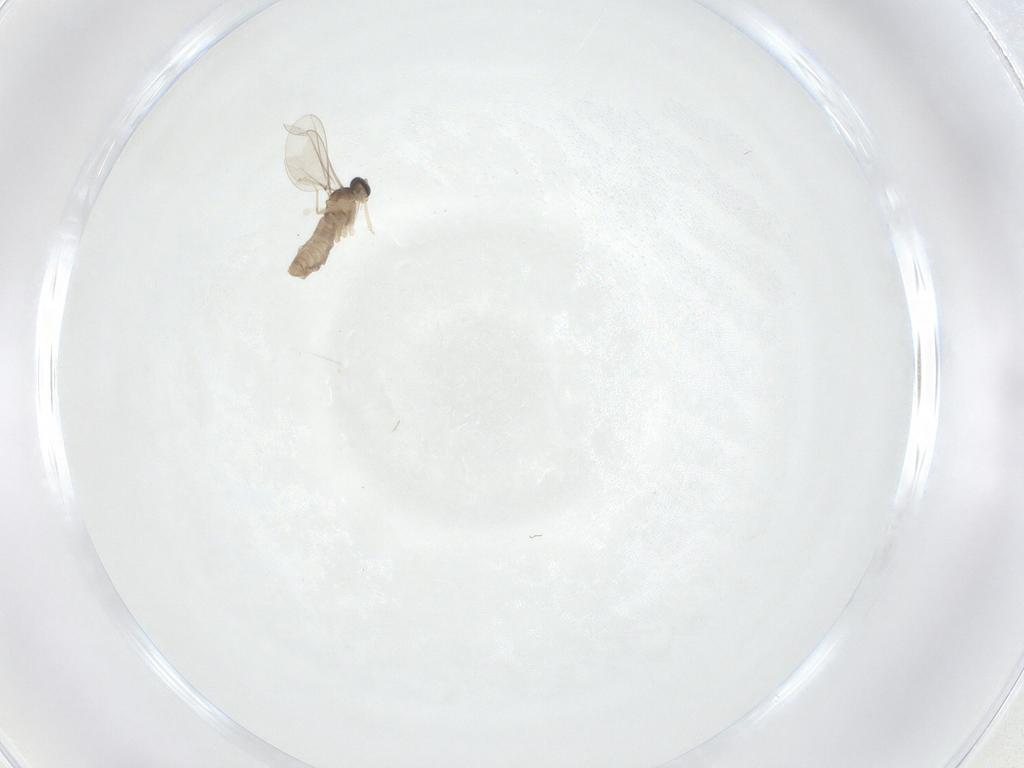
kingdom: Animalia
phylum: Arthropoda
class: Insecta
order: Diptera
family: Cecidomyiidae
